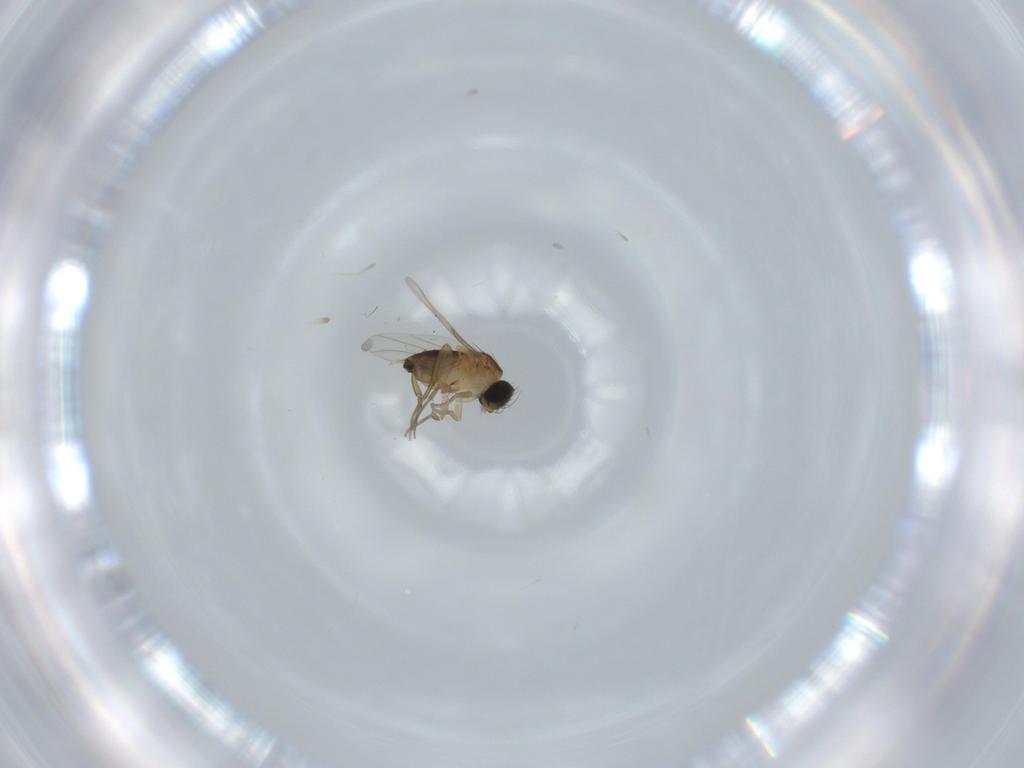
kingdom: Animalia
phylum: Arthropoda
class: Insecta
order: Diptera
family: Phoridae
